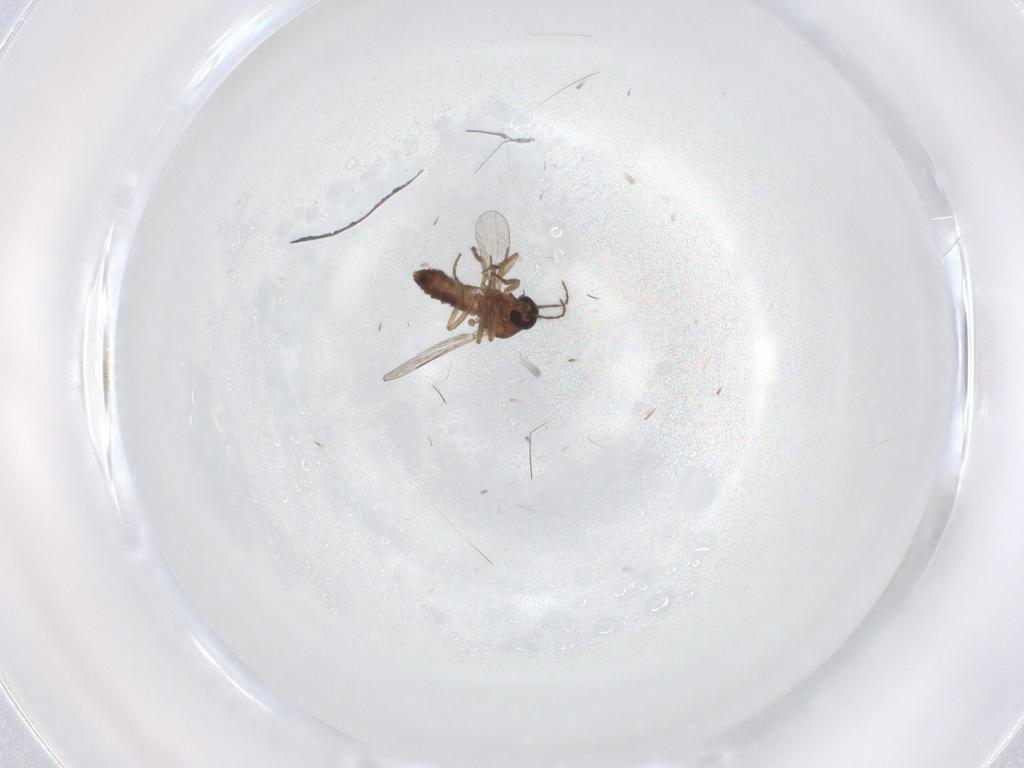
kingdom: Animalia
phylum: Arthropoda
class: Insecta
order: Diptera
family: Ceratopogonidae
